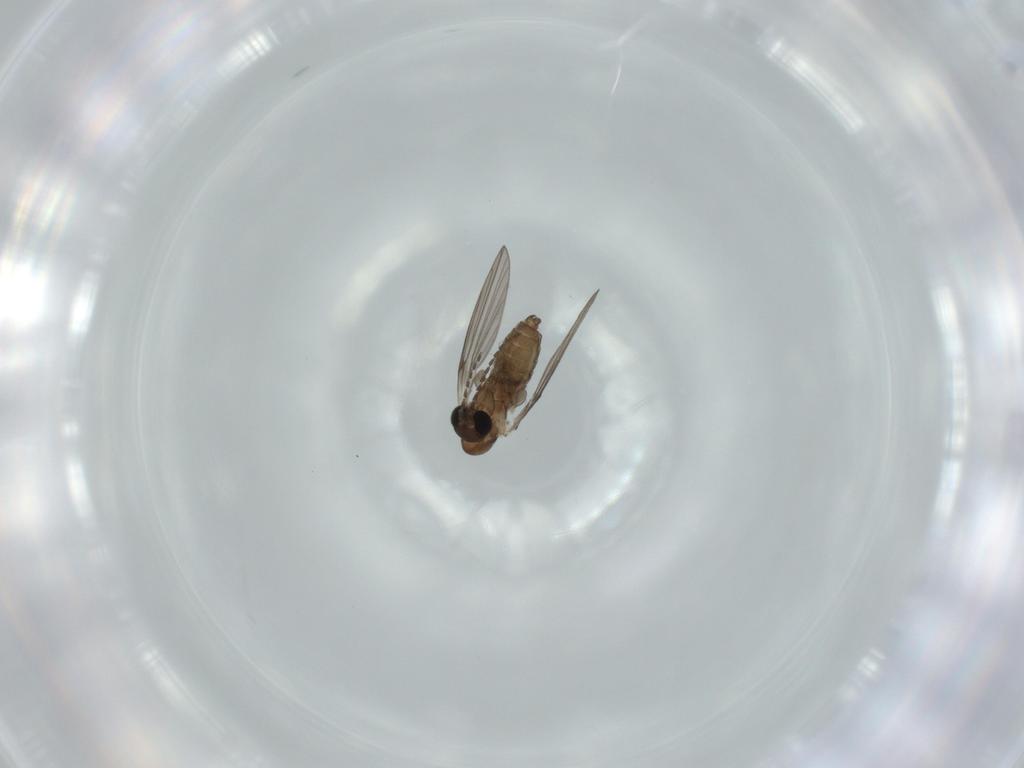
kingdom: Animalia
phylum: Arthropoda
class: Insecta
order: Diptera
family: Psychodidae
